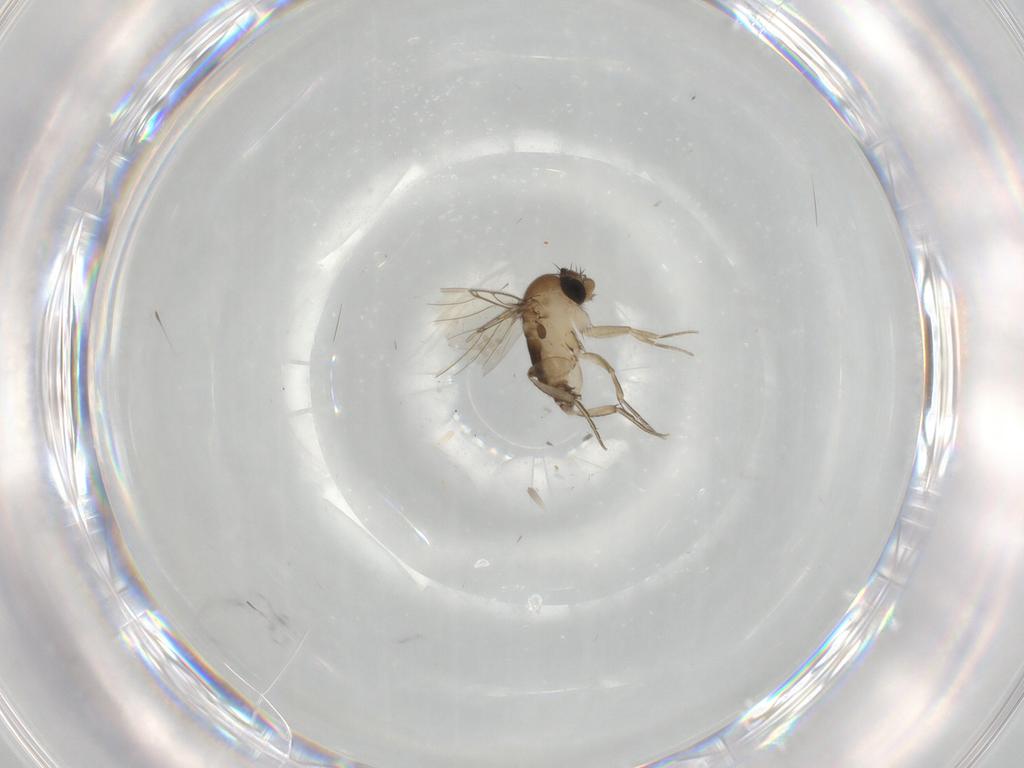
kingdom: Animalia
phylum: Arthropoda
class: Insecta
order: Diptera
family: Phoridae
